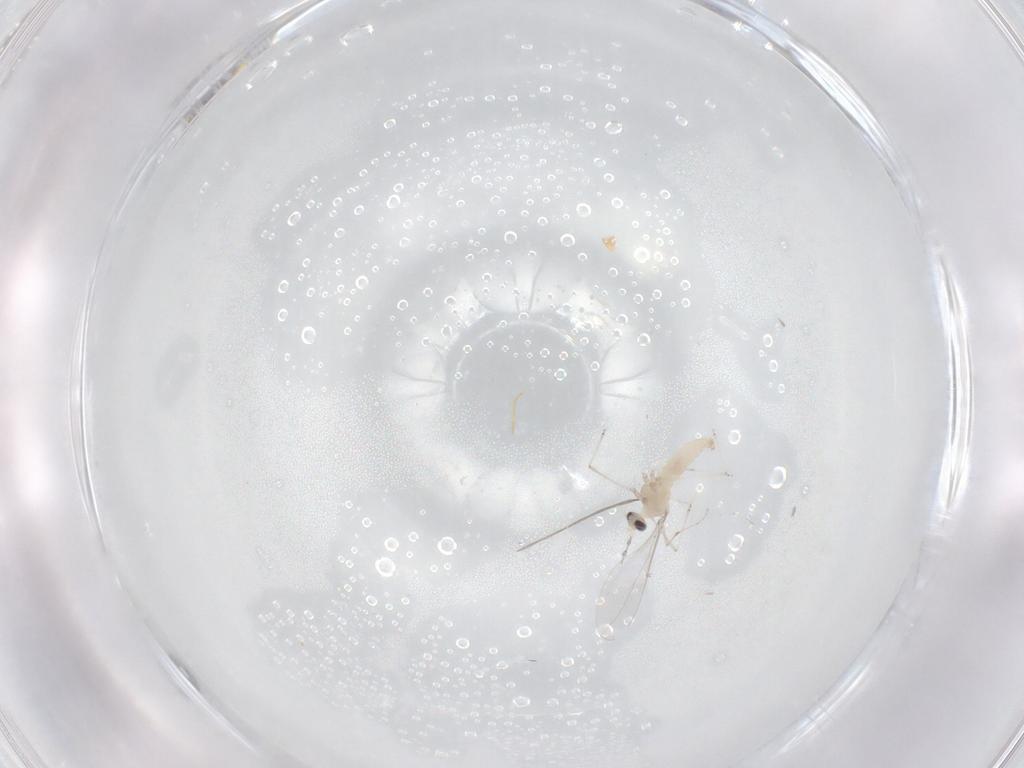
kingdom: Animalia
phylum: Arthropoda
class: Insecta
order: Diptera
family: Cecidomyiidae
